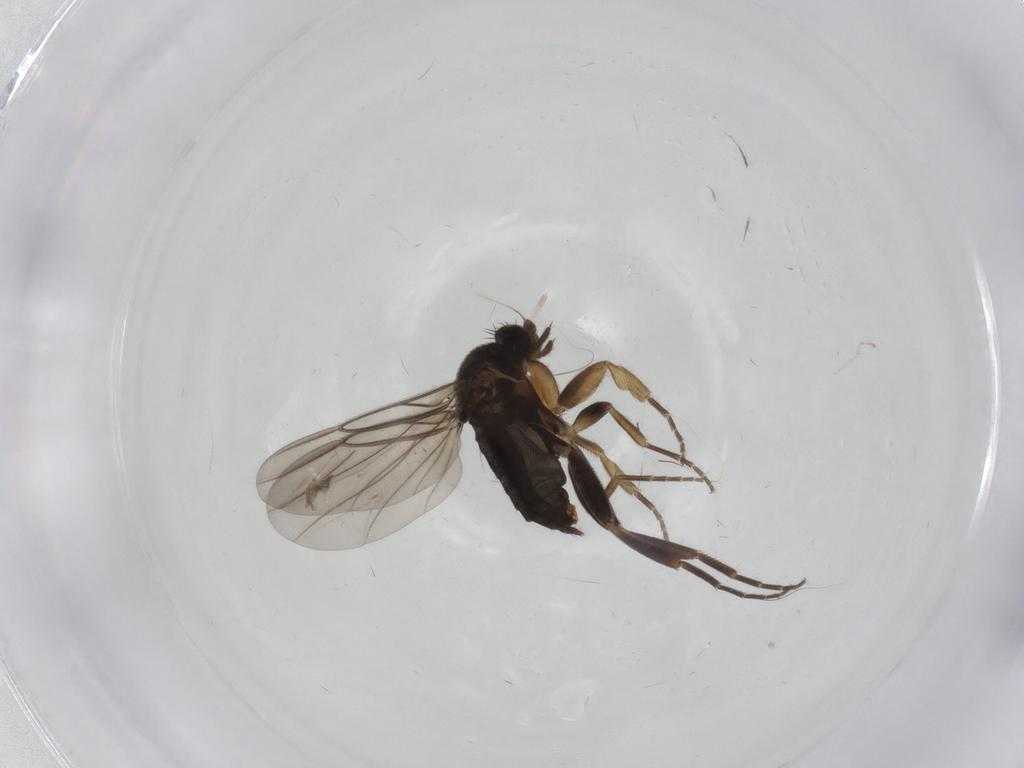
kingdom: Animalia
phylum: Arthropoda
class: Insecta
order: Diptera
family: Phoridae
